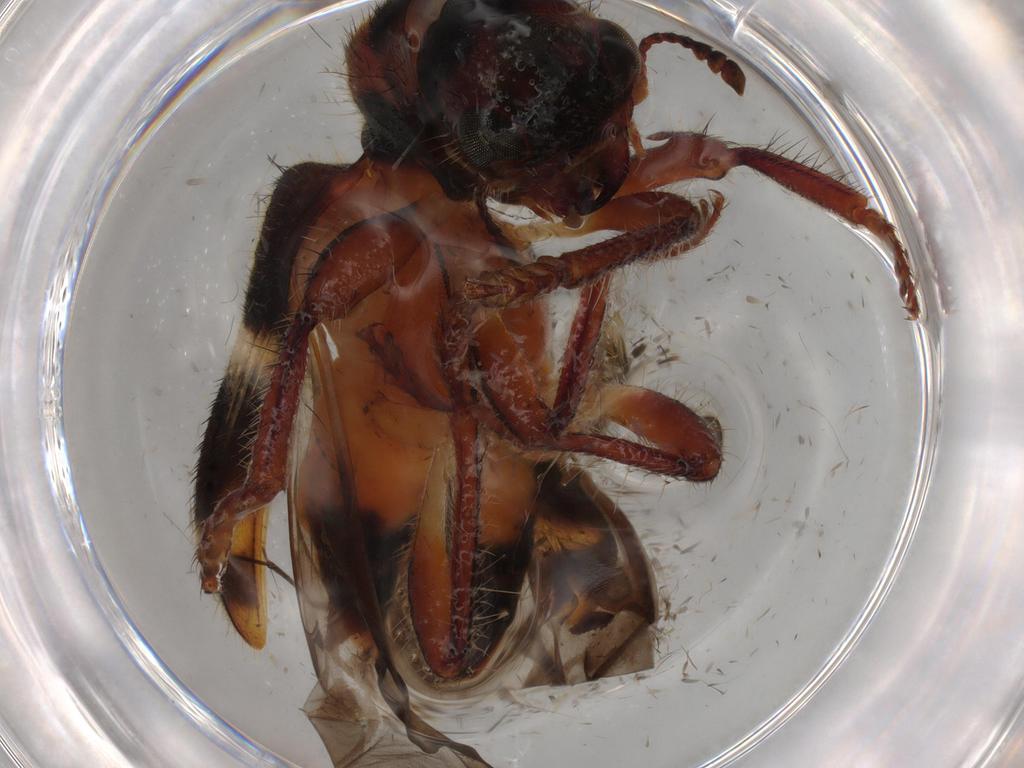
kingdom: Animalia
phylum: Arthropoda
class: Insecta
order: Coleoptera
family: Coccinellidae
